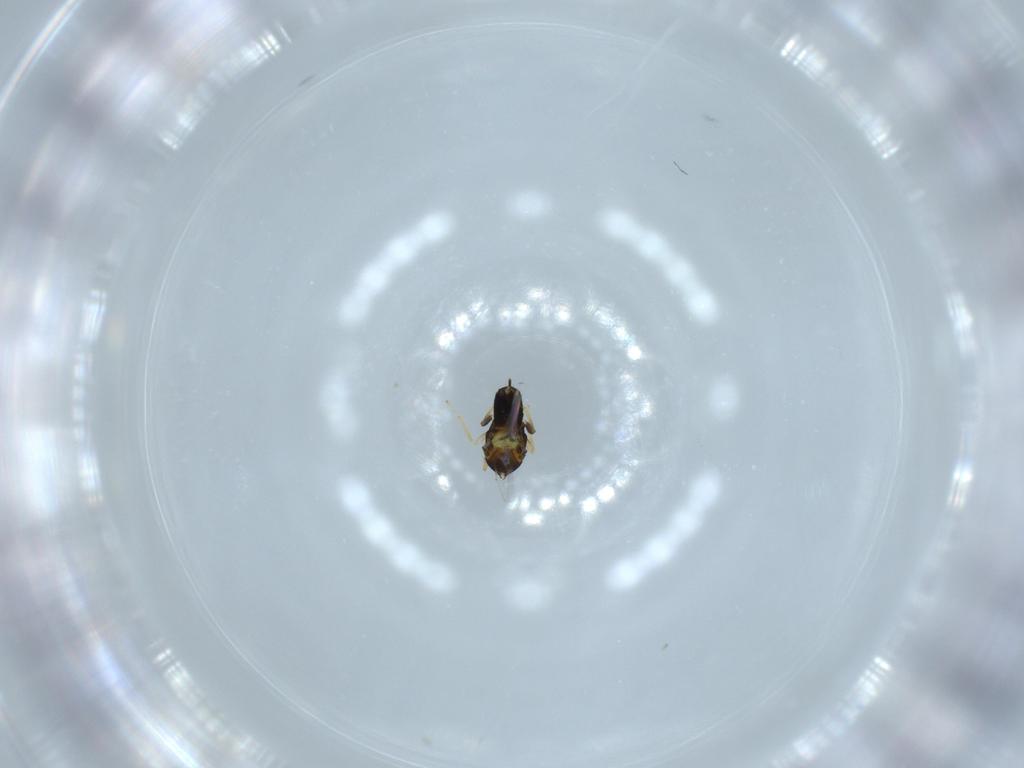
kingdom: Animalia
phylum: Arthropoda
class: Insecta
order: Hymenoptera
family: Aphelinidae
